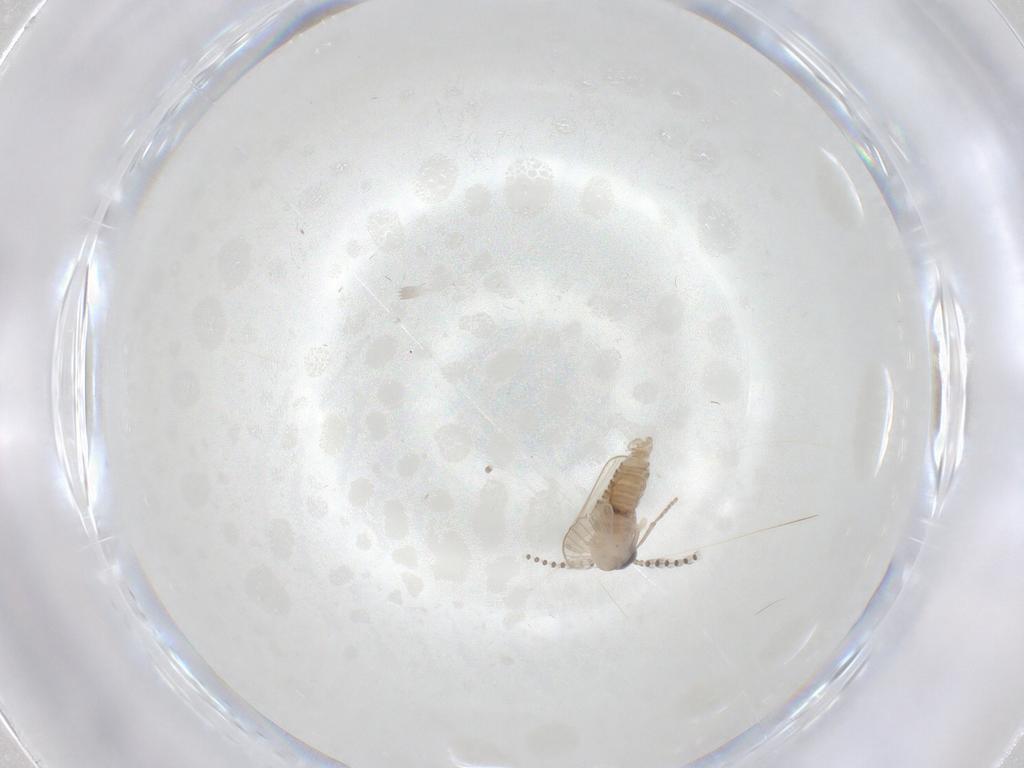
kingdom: Animalia
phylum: Arthropoda
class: Insecta
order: Diptera
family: Psychodidae
